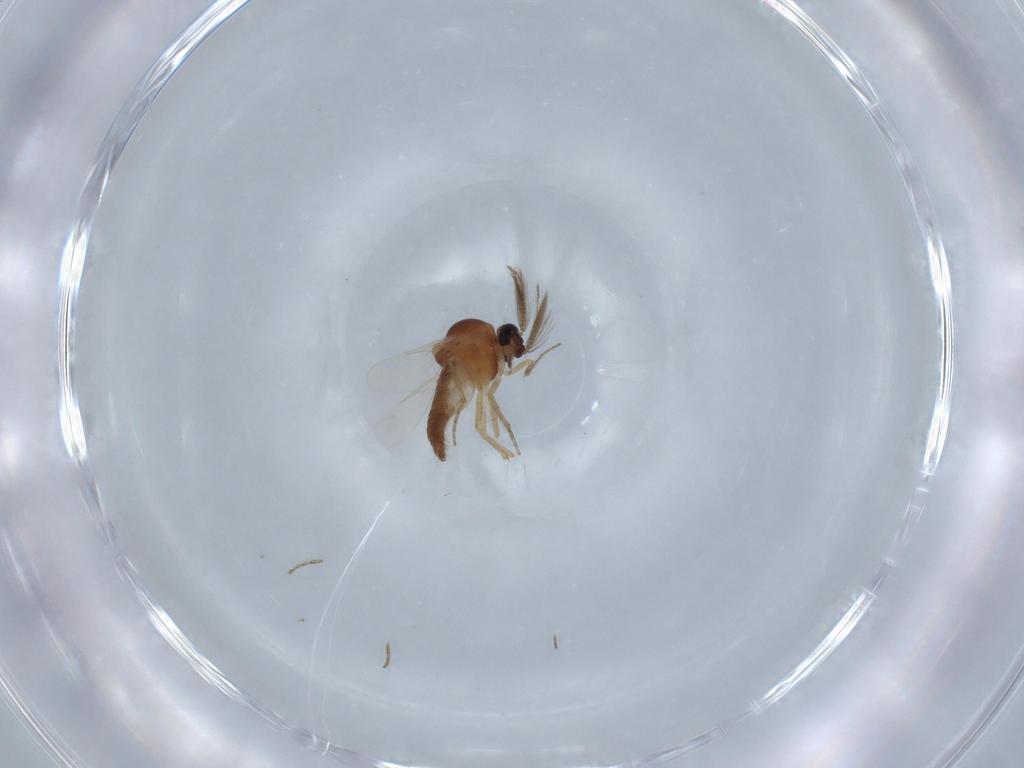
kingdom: Animalia
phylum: Arthropoda
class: Insecta
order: Diptera
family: Ceratopogonidae
